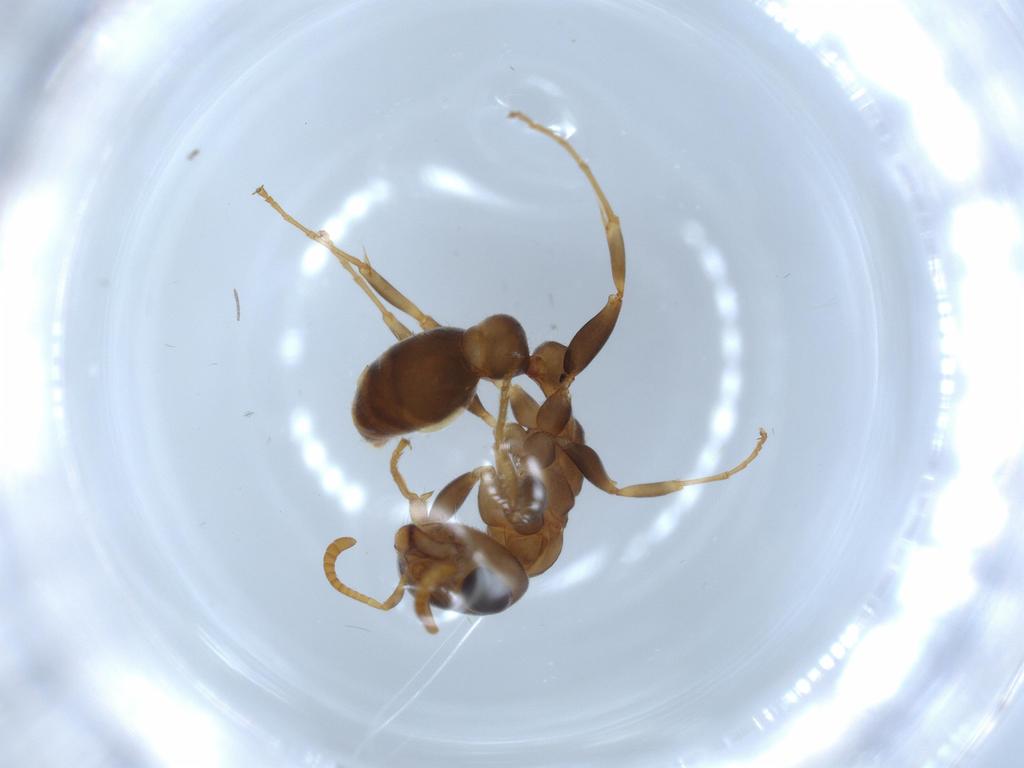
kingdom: Animalia
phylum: Arthropoda
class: Insecta
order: Hymenoptera
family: Formicidae
